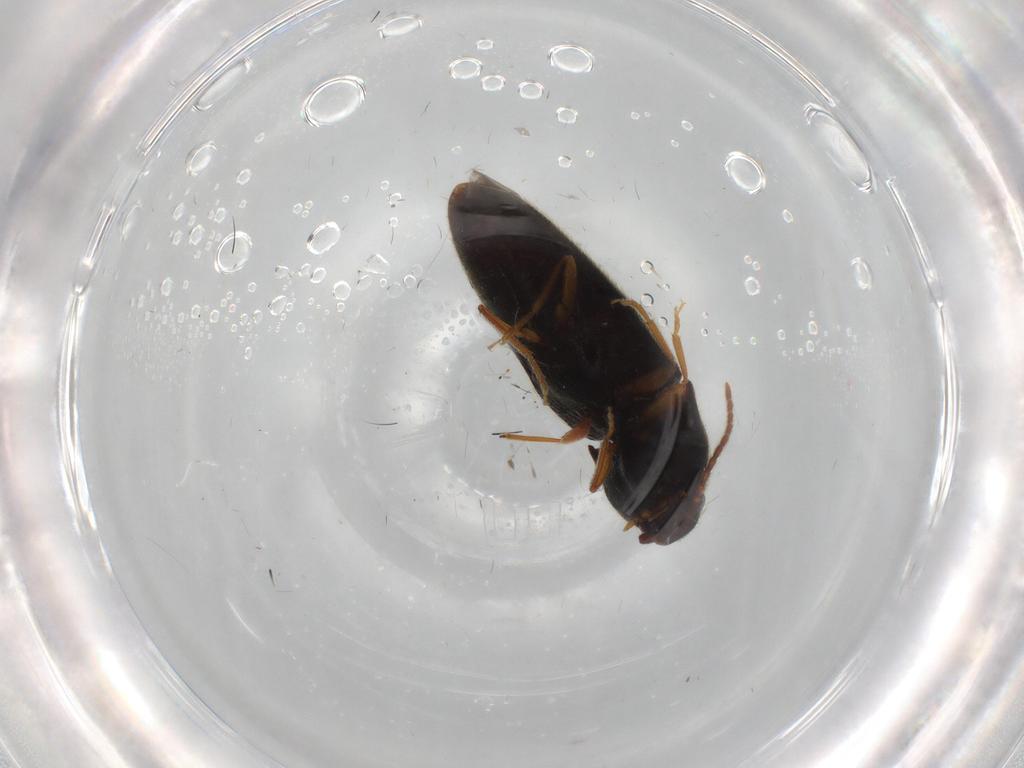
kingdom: Animalia
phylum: Arthropoda
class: Insecta
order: Coleoptera
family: Elateridae
